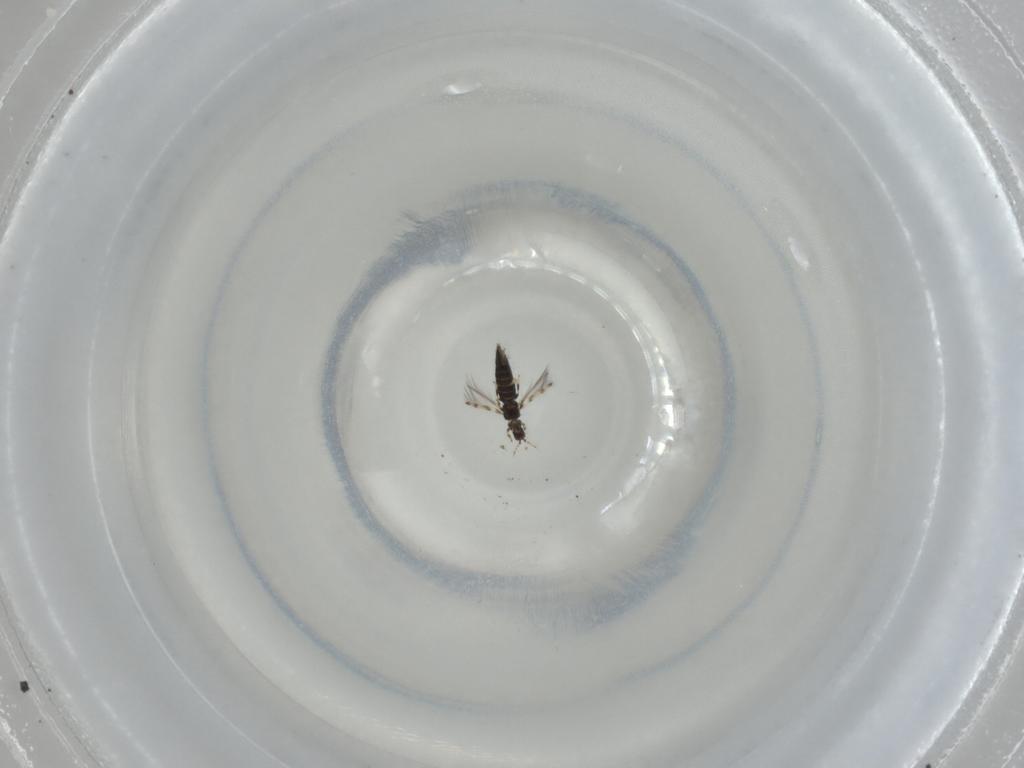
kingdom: Animalia
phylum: Arthropoda
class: Insecta
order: Thysanoptera
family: Thripidae
